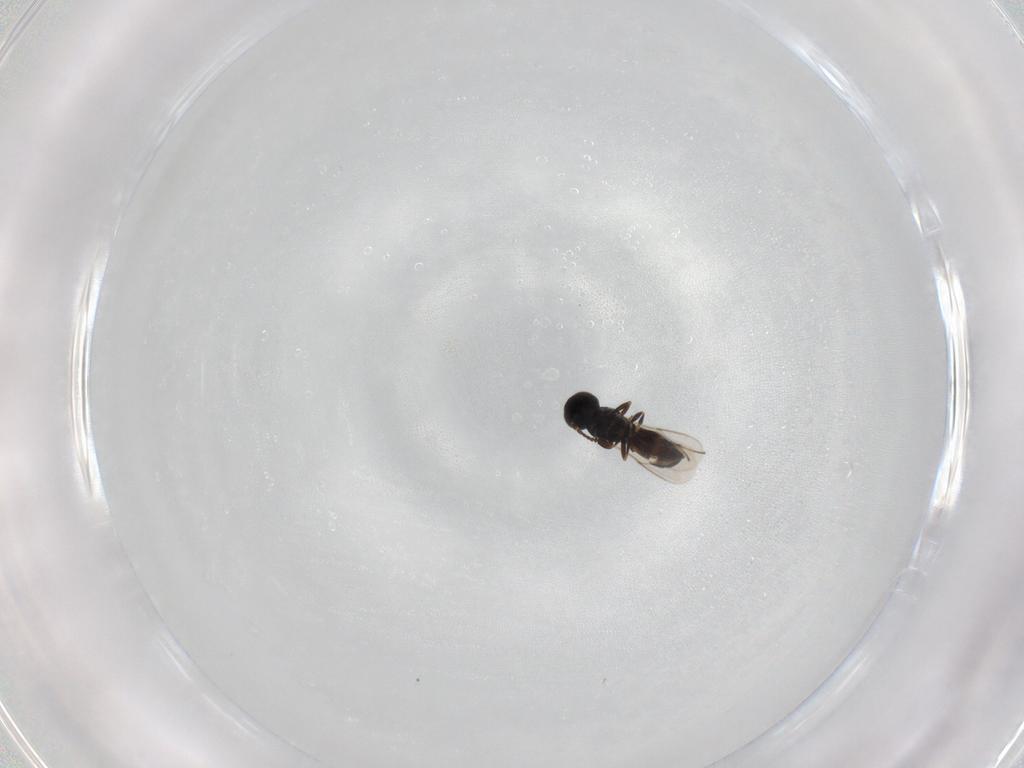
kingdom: Animalia
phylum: Arthropoda
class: Insecta
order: Hymenoptera
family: Scelionidae
